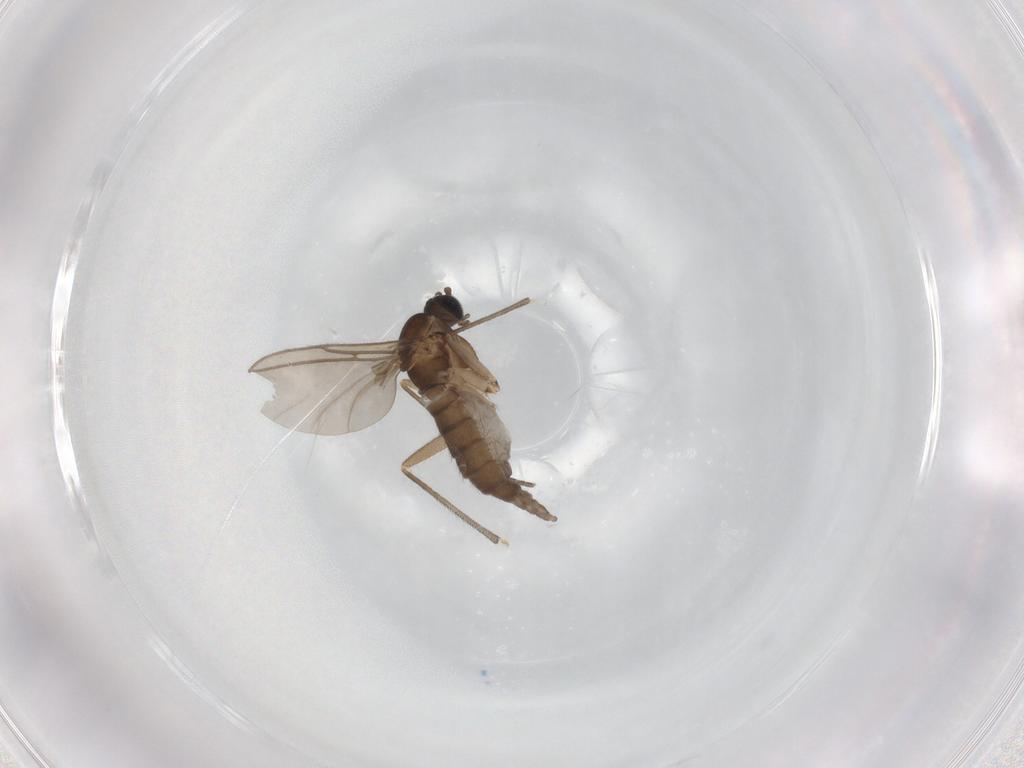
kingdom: Animalia
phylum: Arthropoda
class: Insecta
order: Diptera
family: Sciaridae
